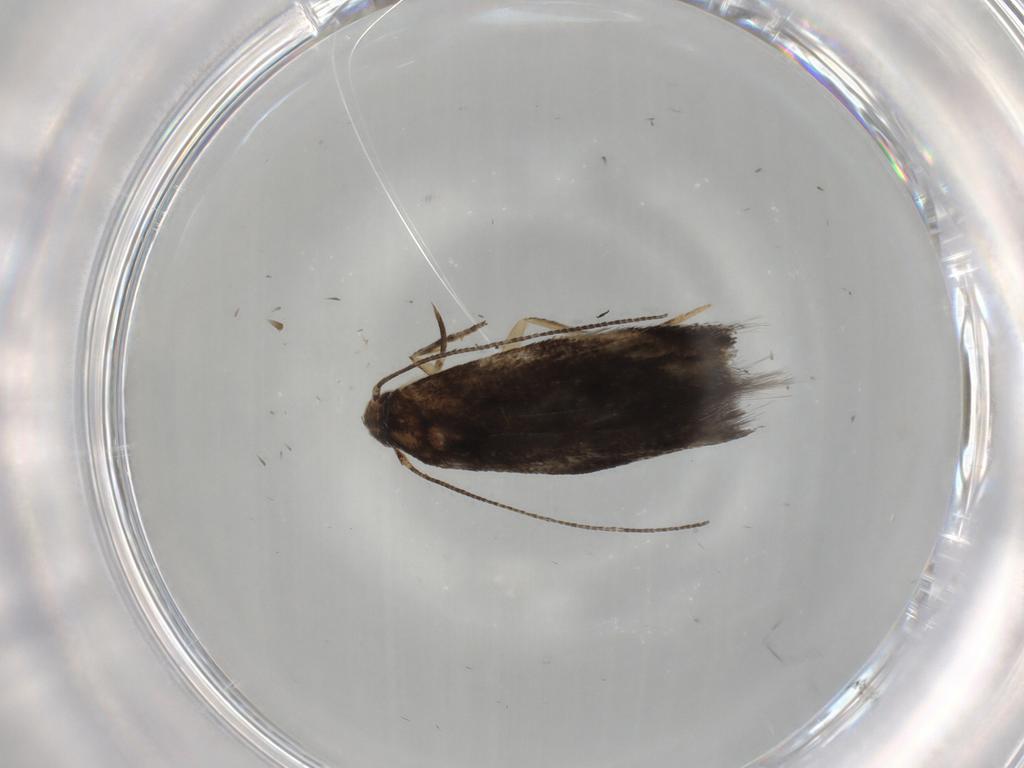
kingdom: Animalia
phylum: Arthropoda
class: Insecta
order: Lepidoptera
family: Elachistidae
